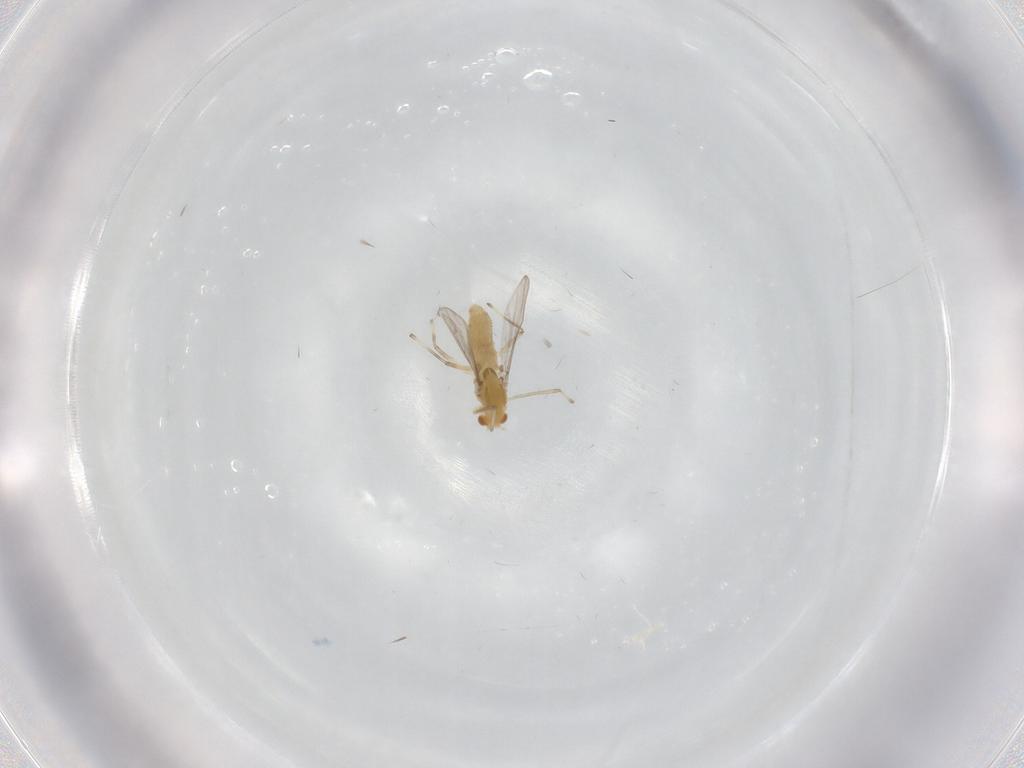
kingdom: Animalia
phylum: Arthropoda
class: Insecta
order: Diptera
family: Chironomidae
